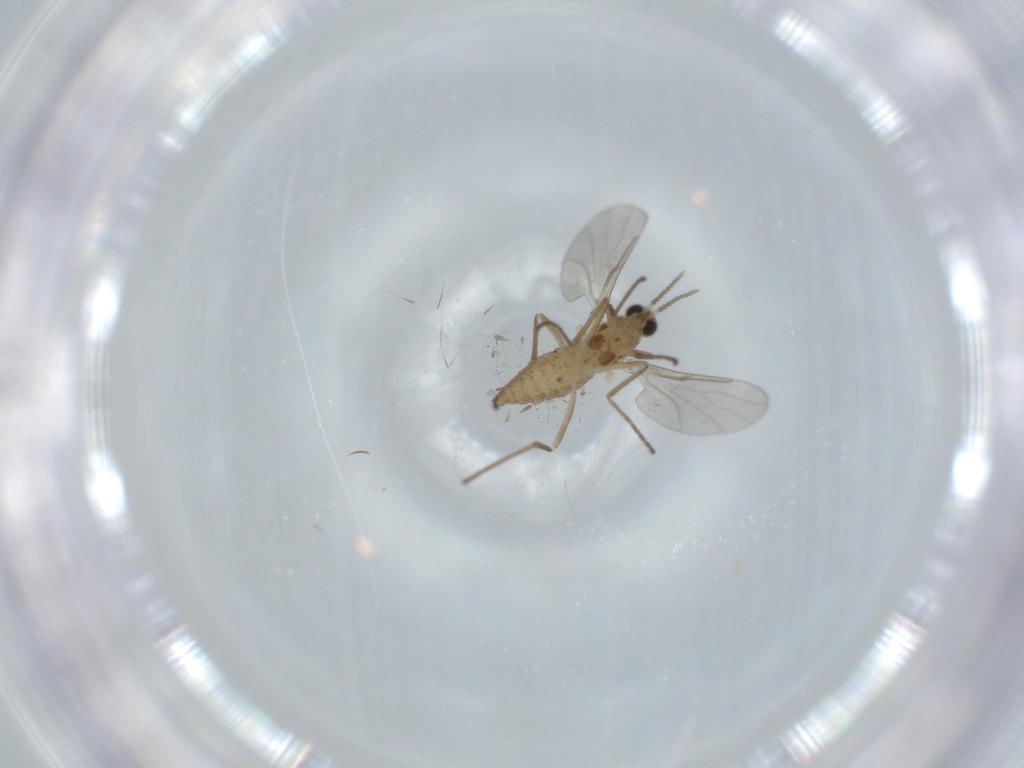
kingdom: Animalia
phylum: Arthropoda
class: Insecta
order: Diptera
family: Cecidomyiidae
